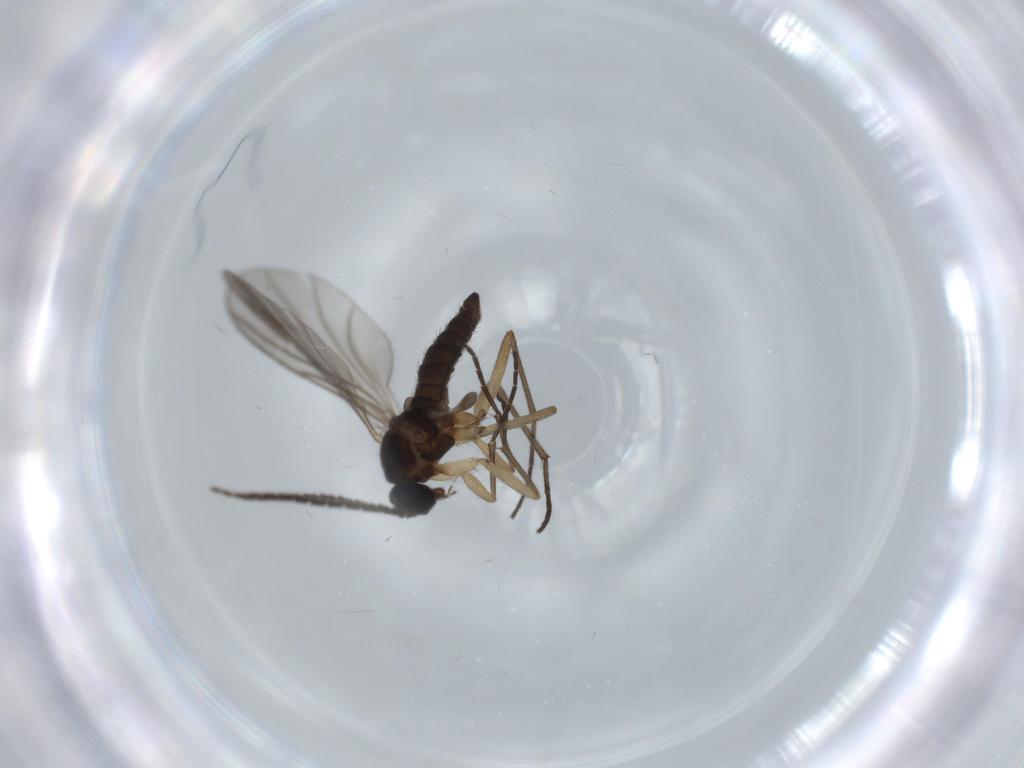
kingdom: Animalia
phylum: Arthropoda
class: Insecta
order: Diptera
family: Sciaridae
